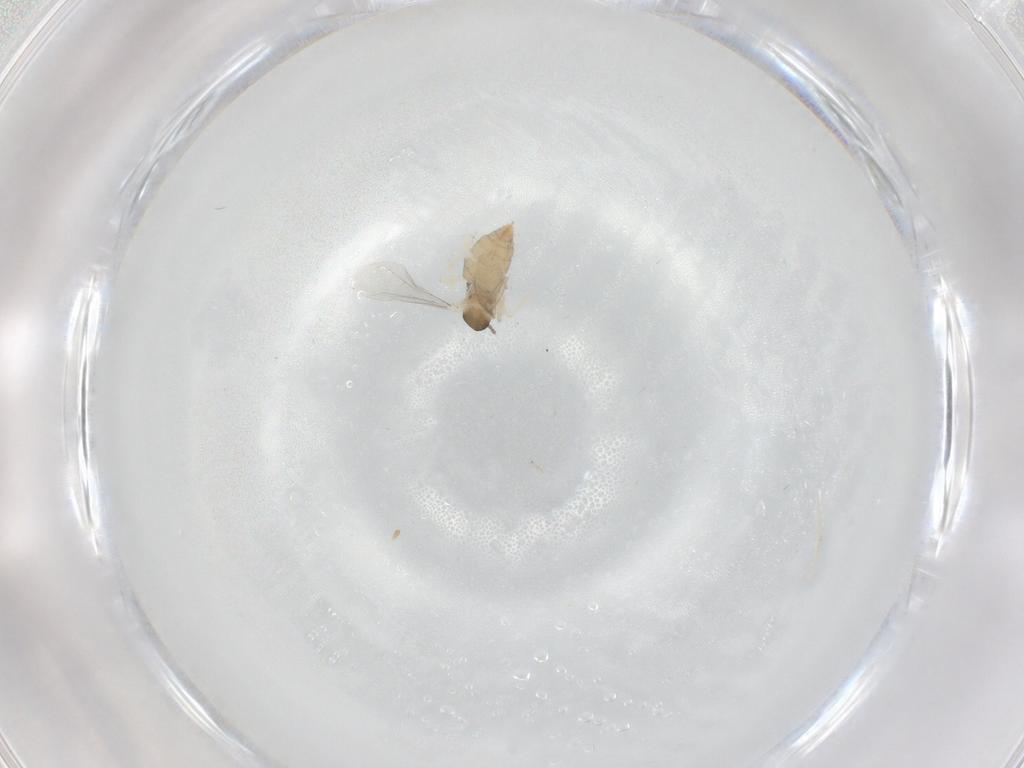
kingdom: Animalia
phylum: Arthropoda
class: Insecta
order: Diptera
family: Cecidomyiidae
